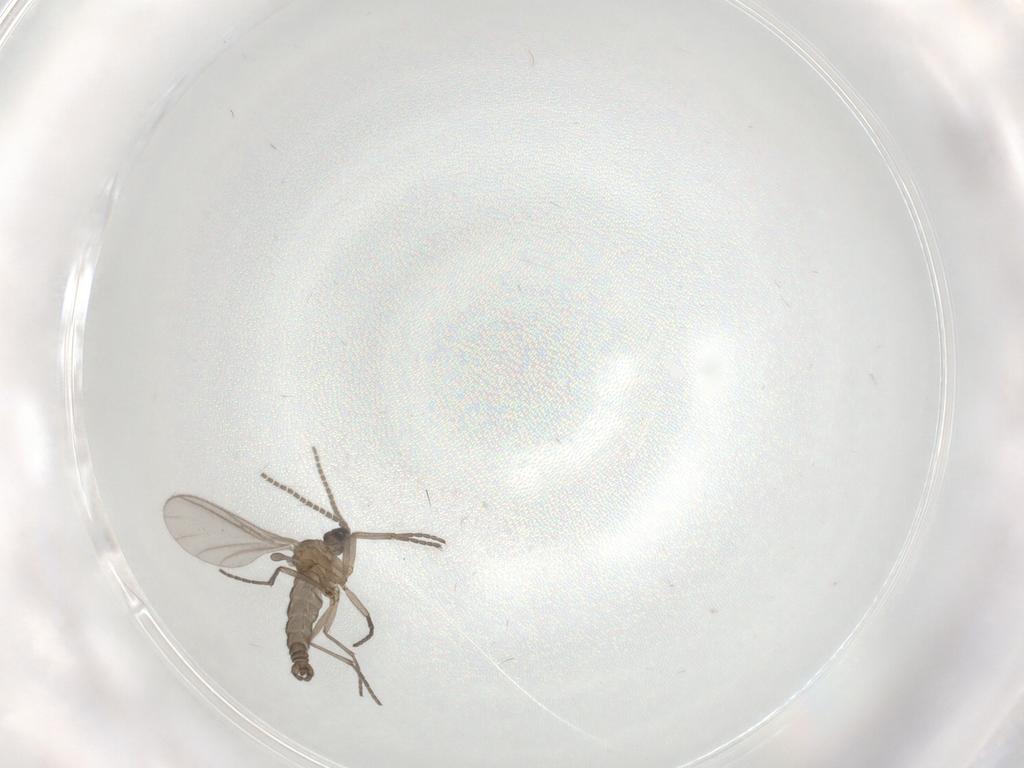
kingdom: Animalia
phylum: Arthropoda
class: Insecta
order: Diptera
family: Sciaridae
